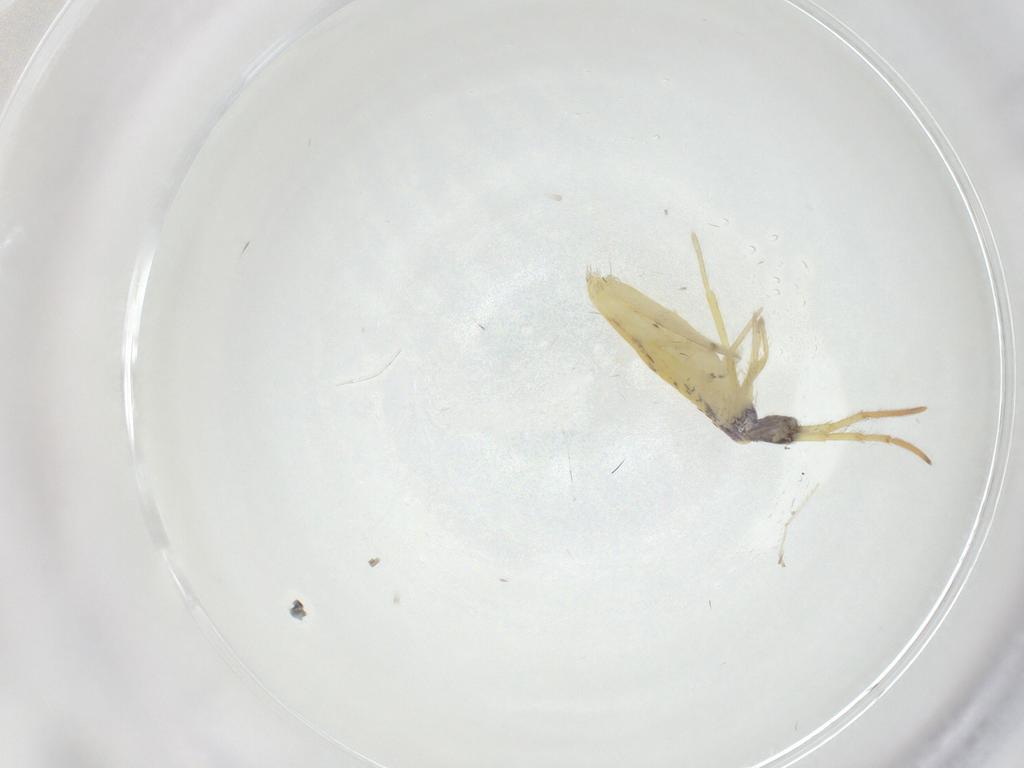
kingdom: Animalia
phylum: Arthropoda
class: Collembola
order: Entomobryomorpha
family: Entomobryidae
